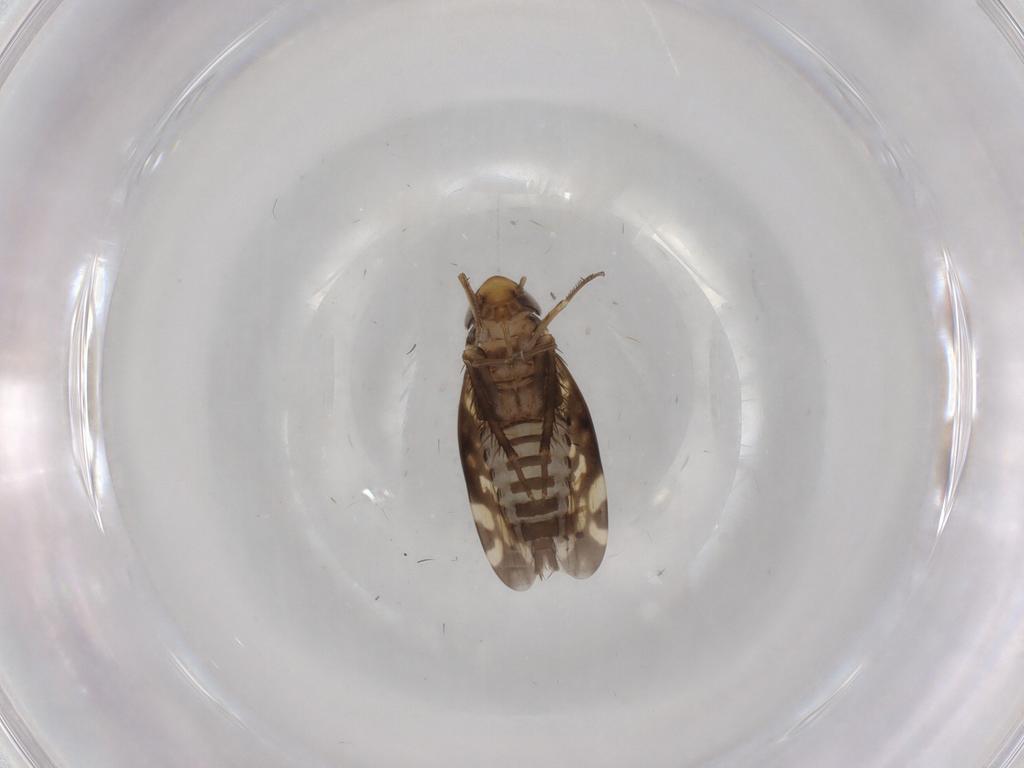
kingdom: Animalia
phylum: Arthropoda
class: Insecta
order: Hemiptera
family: Cicadellidae
